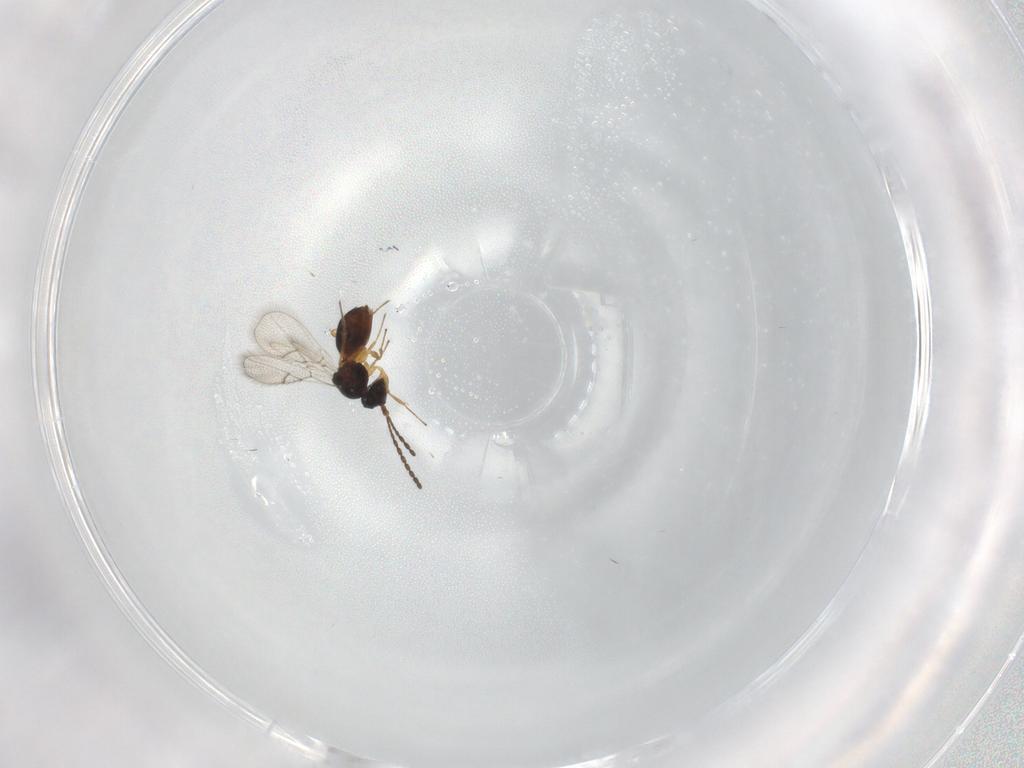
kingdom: Animalia
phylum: Arthropoda
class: Insecta
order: Hymenoptera
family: Figitidae
